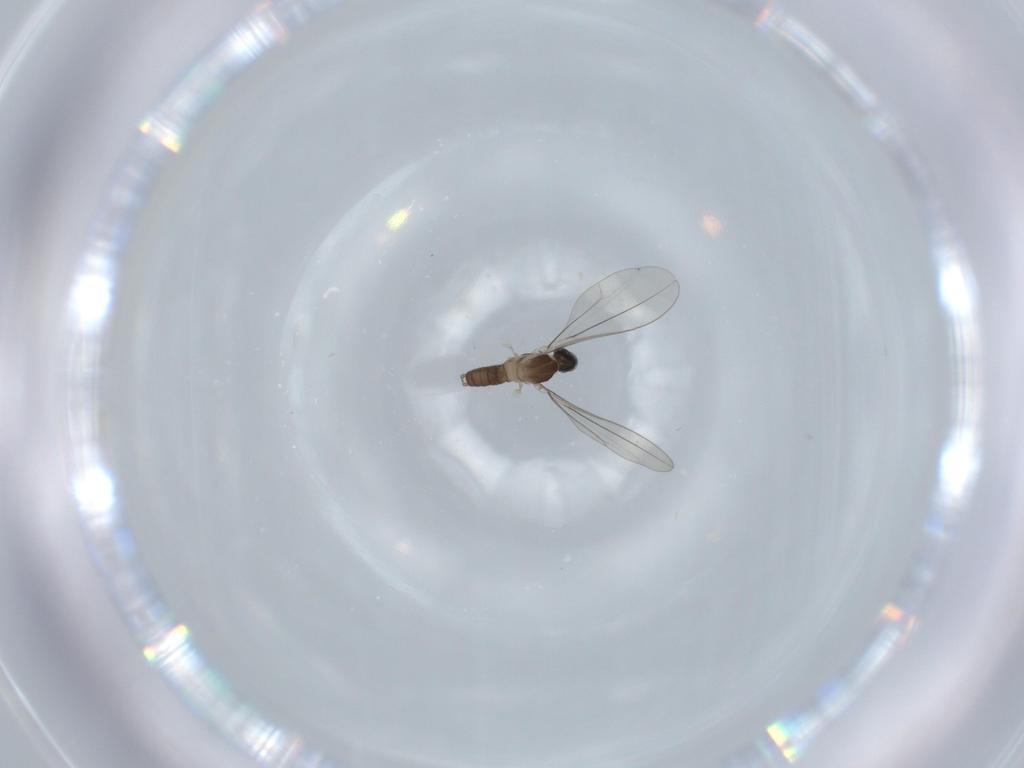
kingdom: Animalia
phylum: Arthropoda
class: Insecta
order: Diptera
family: Cecidomyiidae
